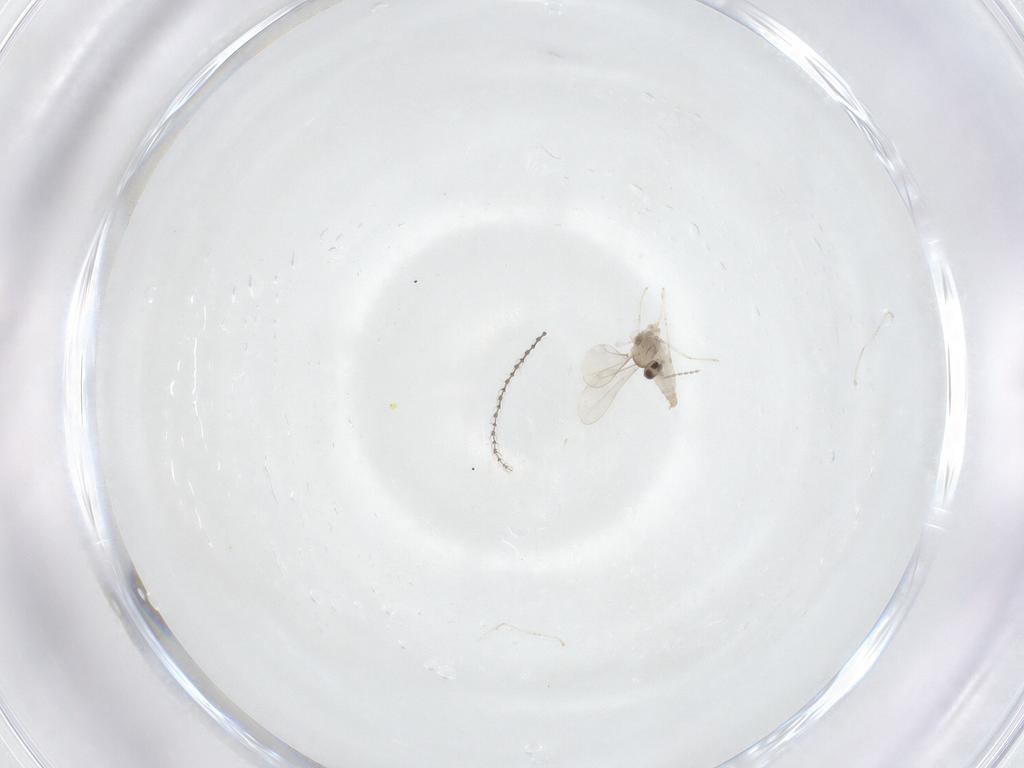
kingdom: Animalia
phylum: Arthropoda
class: Insecta
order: Diptera
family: Cecidomyiidae
